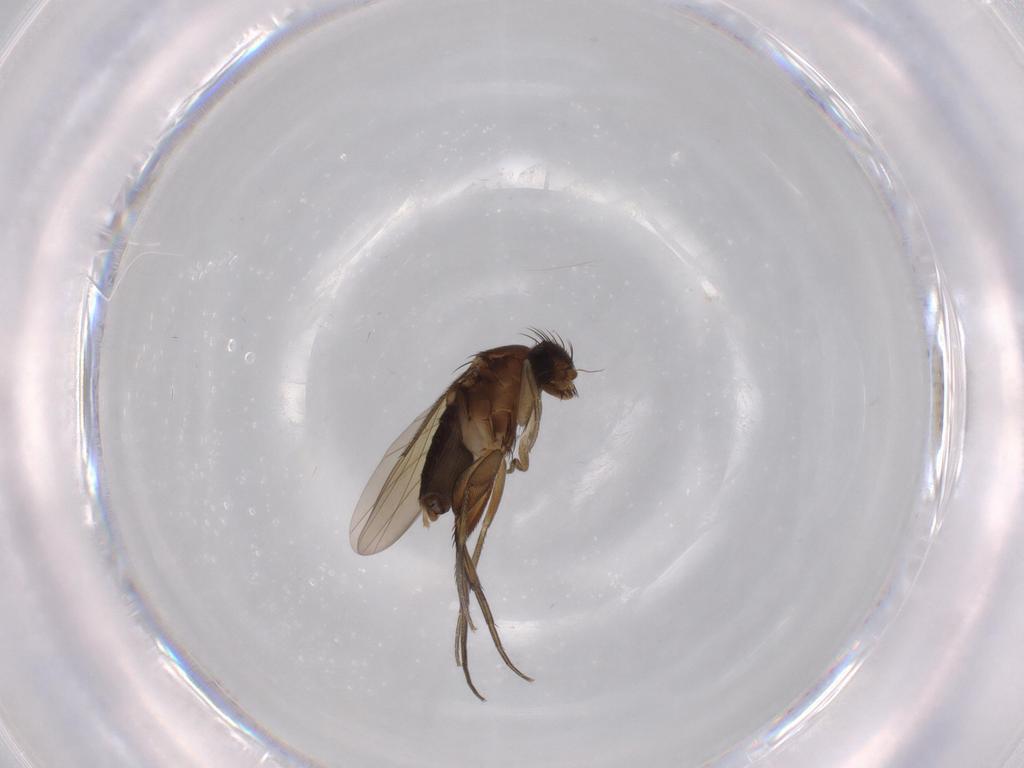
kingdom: Animalia
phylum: Arthropoda
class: Insecta
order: Diptera
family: Phoridae
